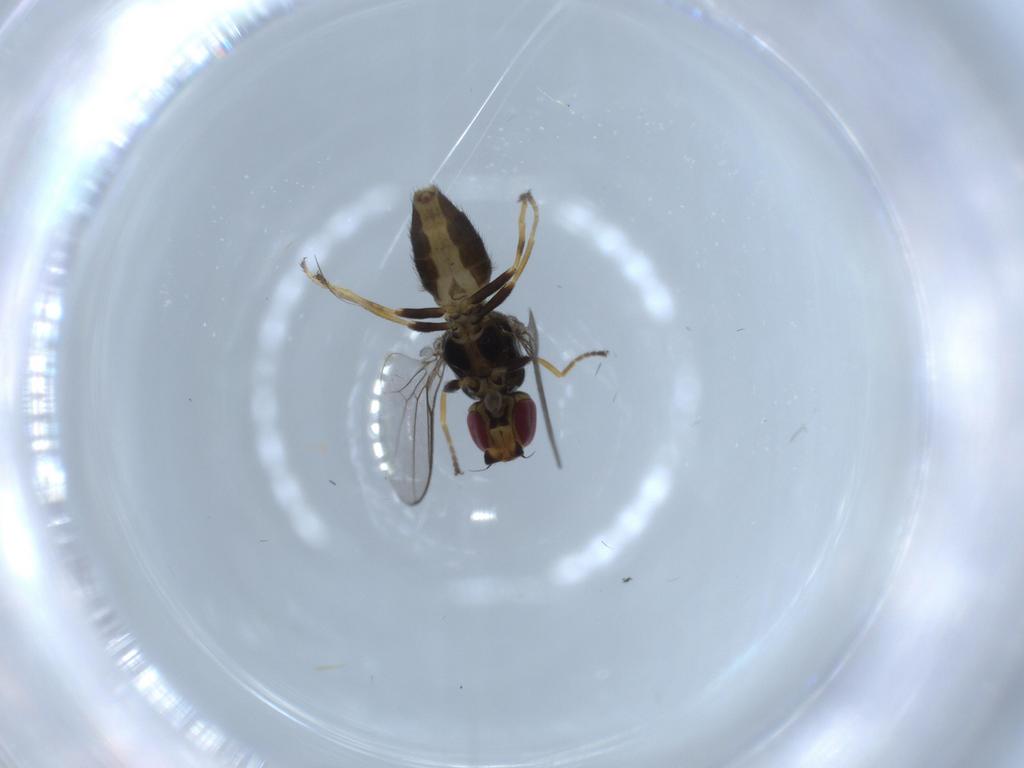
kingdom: Animalia
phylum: Arthropoda
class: Insecta
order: Diptera
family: Chloropidae
